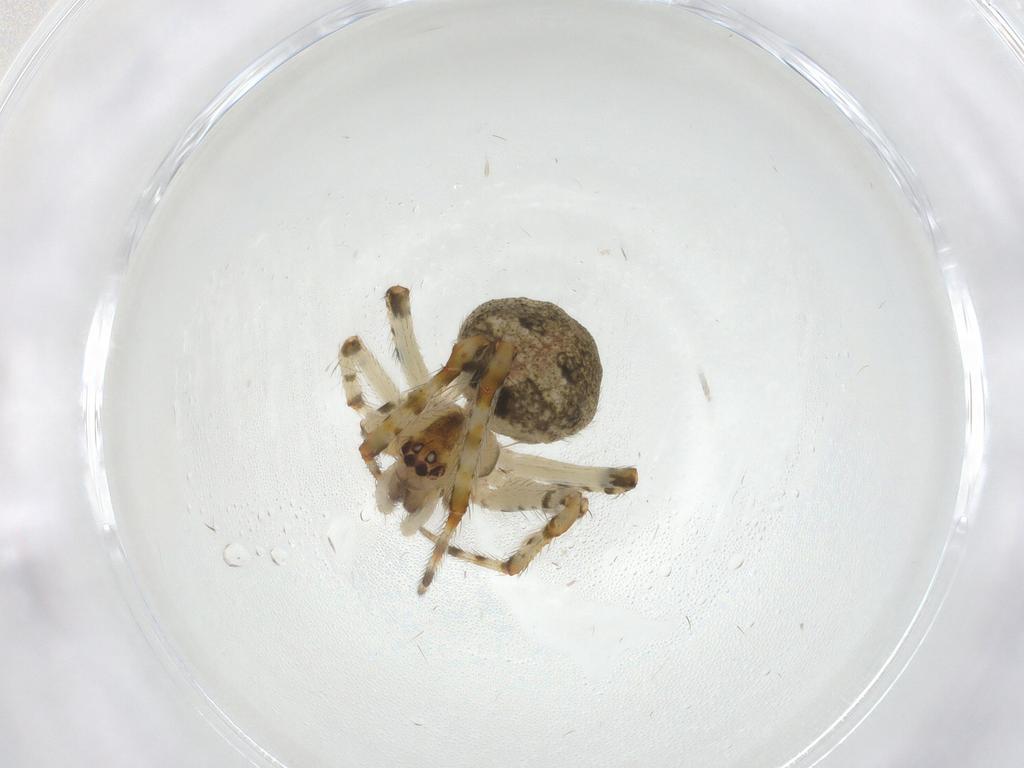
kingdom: Animalia
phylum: Arthropoda
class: Arachnida
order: Araneae
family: Theridiidae
